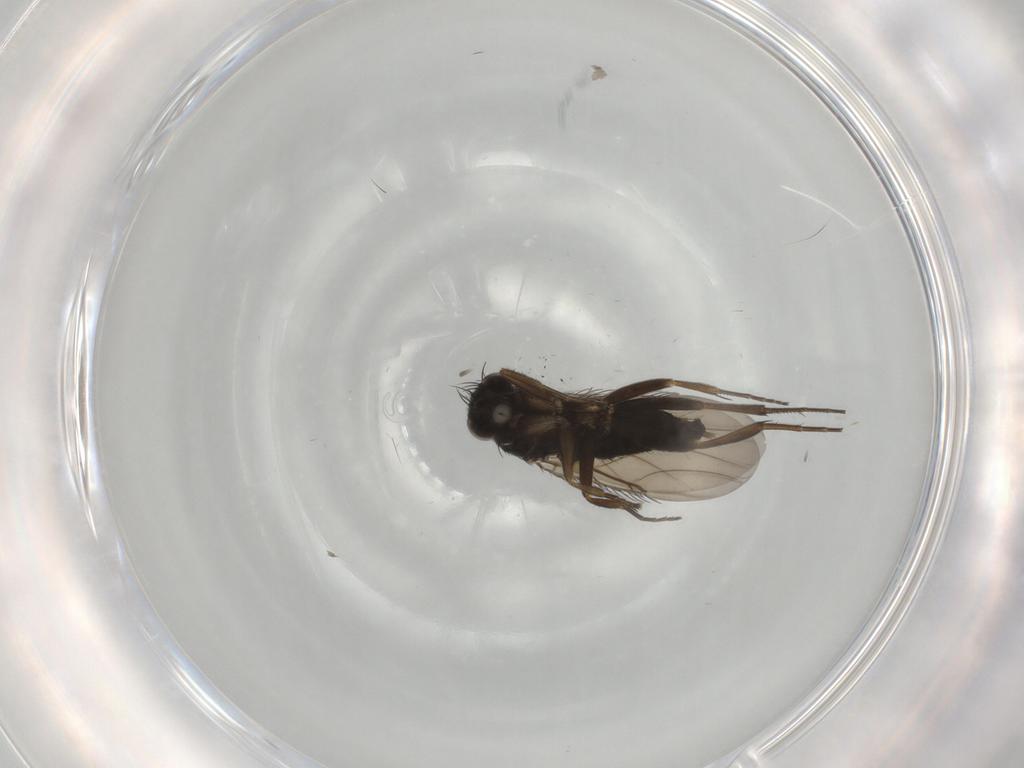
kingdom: Animalia
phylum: Arthropoda
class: Insecta
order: Diptera
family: Phoridae
